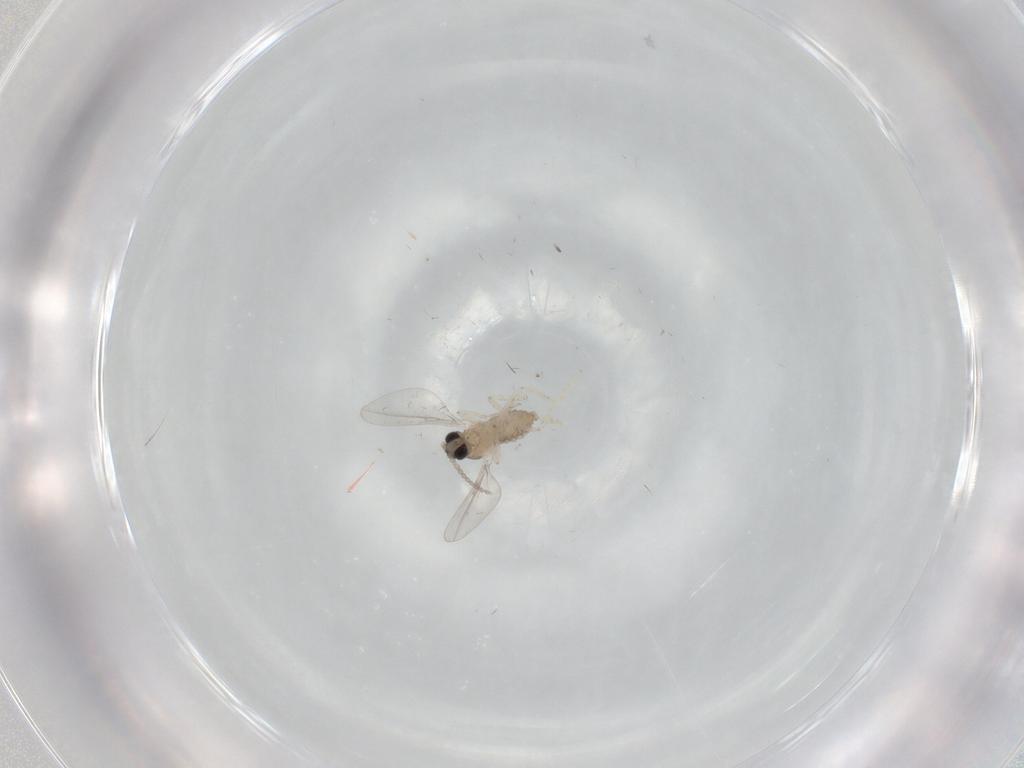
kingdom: Animalia
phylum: Arthropoda
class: Insecta
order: Diptera
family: Cecidomyiidae
